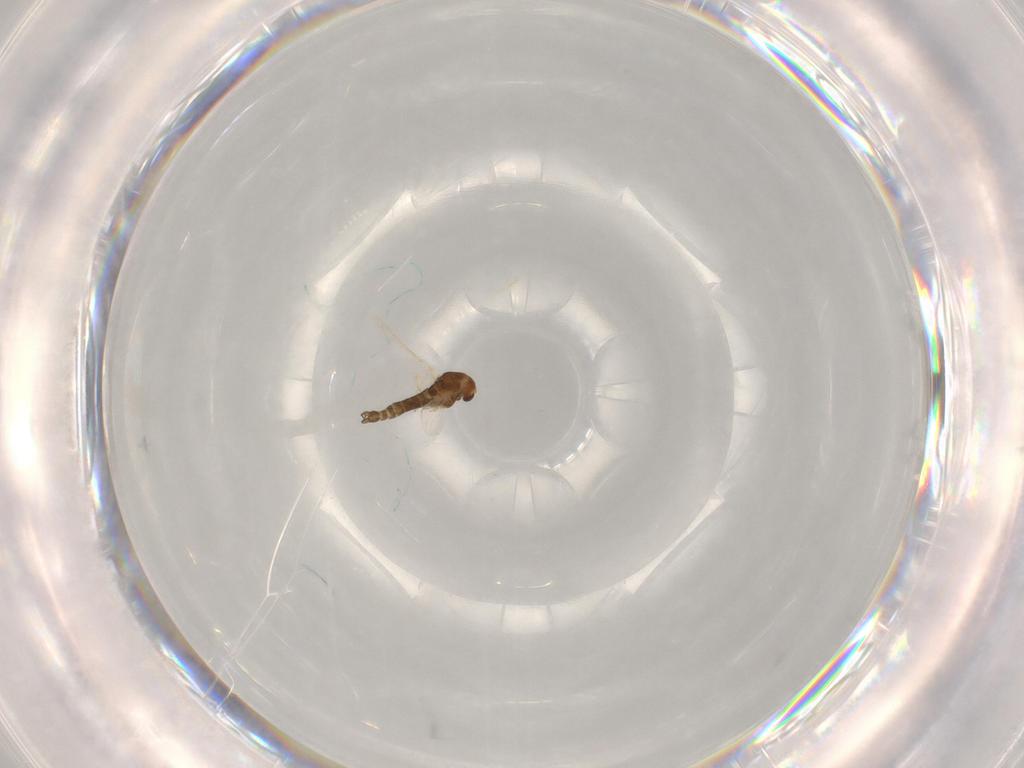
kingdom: Animalia
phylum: Arthropoda
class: Insecta
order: Diptera
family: Chironomidae
